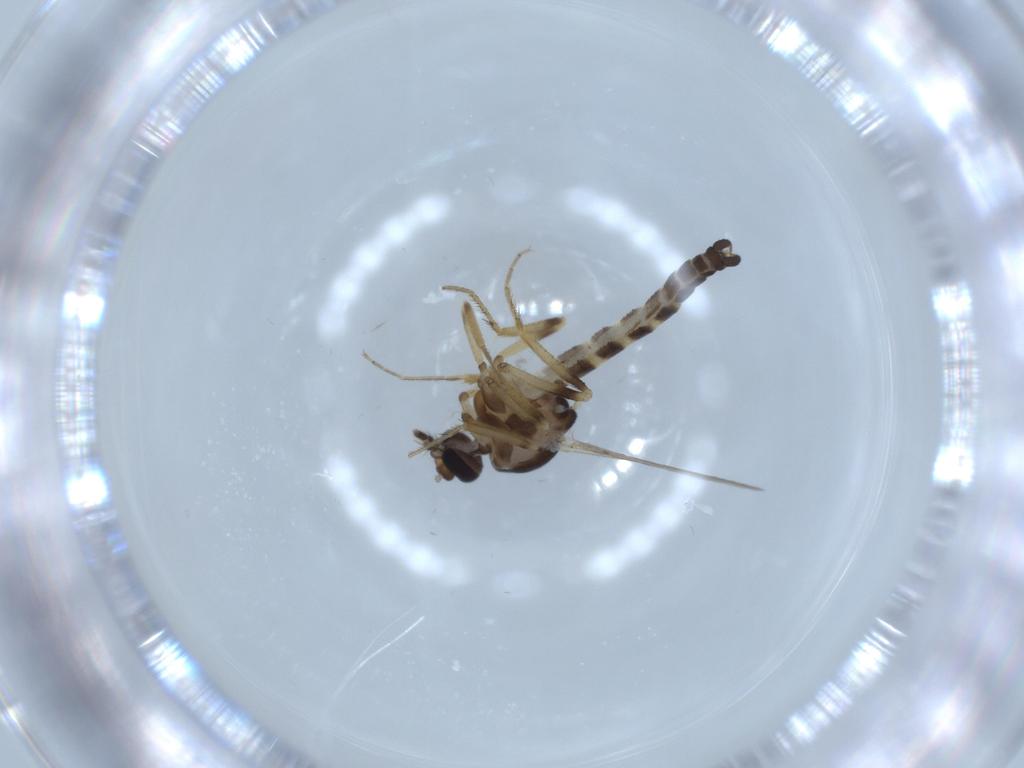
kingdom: Animalia
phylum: Arthropoda
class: Insecta
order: Diptera
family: Ceratopogonidae
